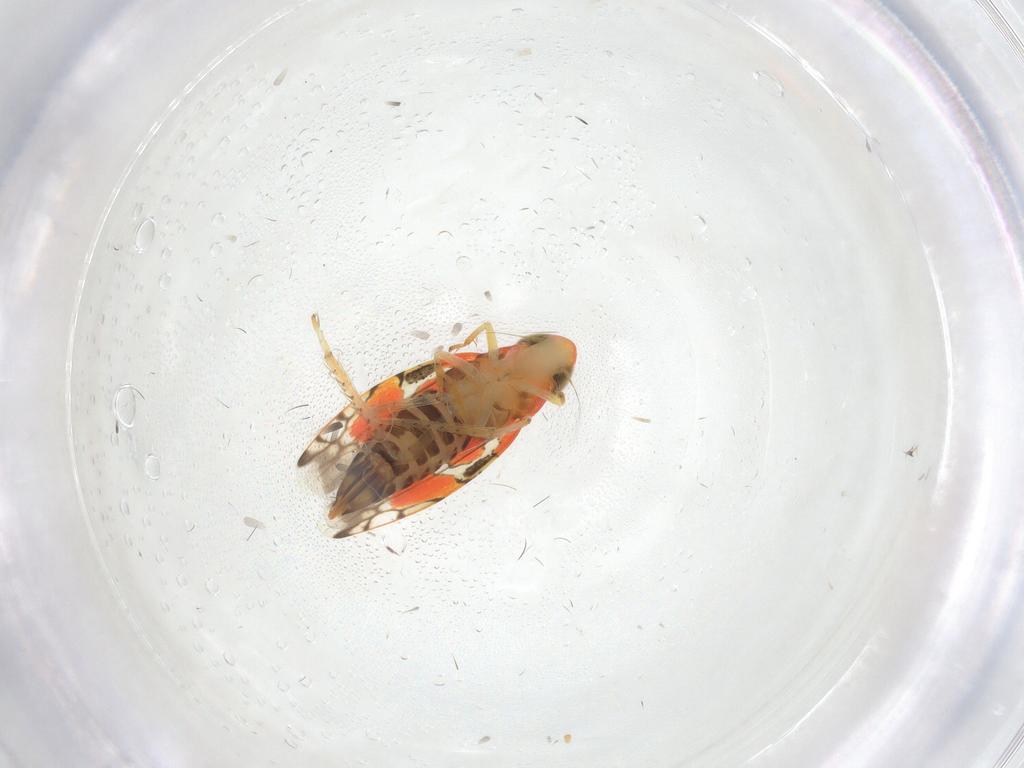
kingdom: Animalia
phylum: Arthropoda
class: Insecta
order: Hemiptera
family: Cicadellidae
